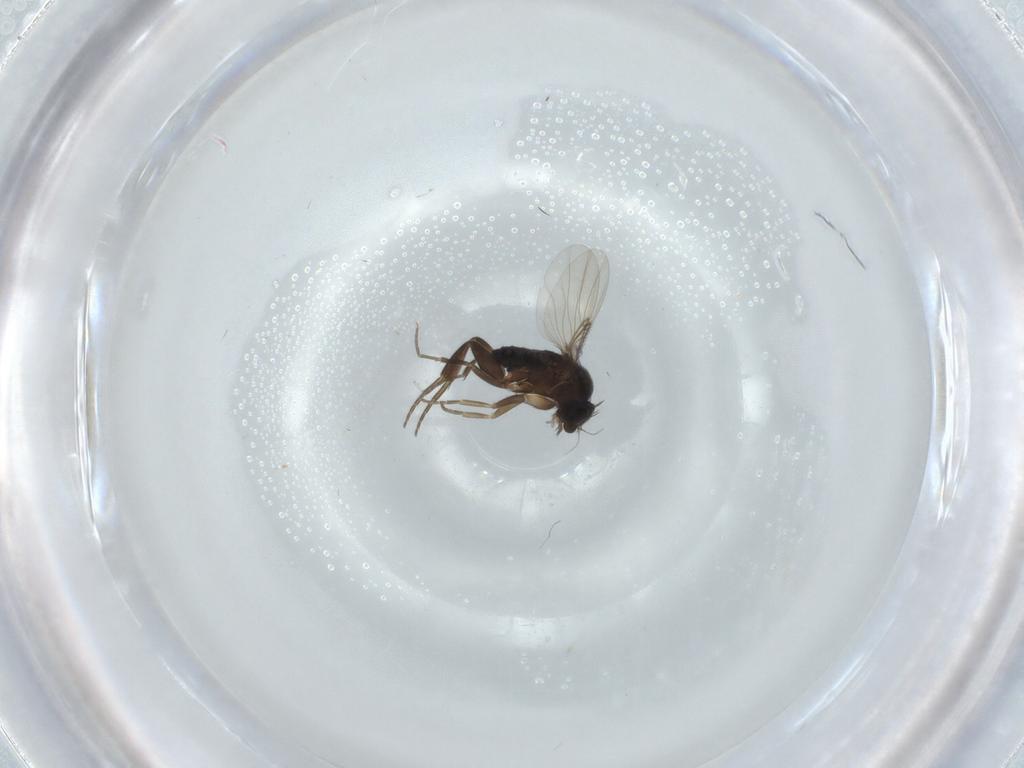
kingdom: Animalia
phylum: Arthropoda
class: Insecta
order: Diptera
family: Phoridae
